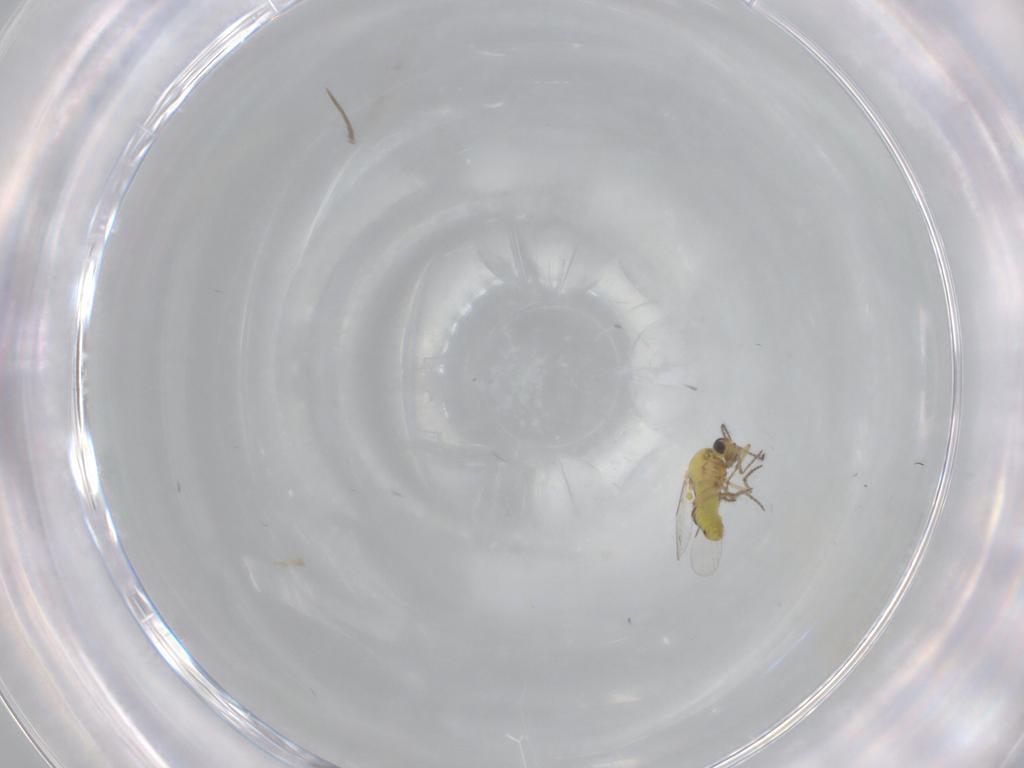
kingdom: Animalia
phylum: Arthropoda
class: Insecta
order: Diptera
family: Ceratopogonidae
